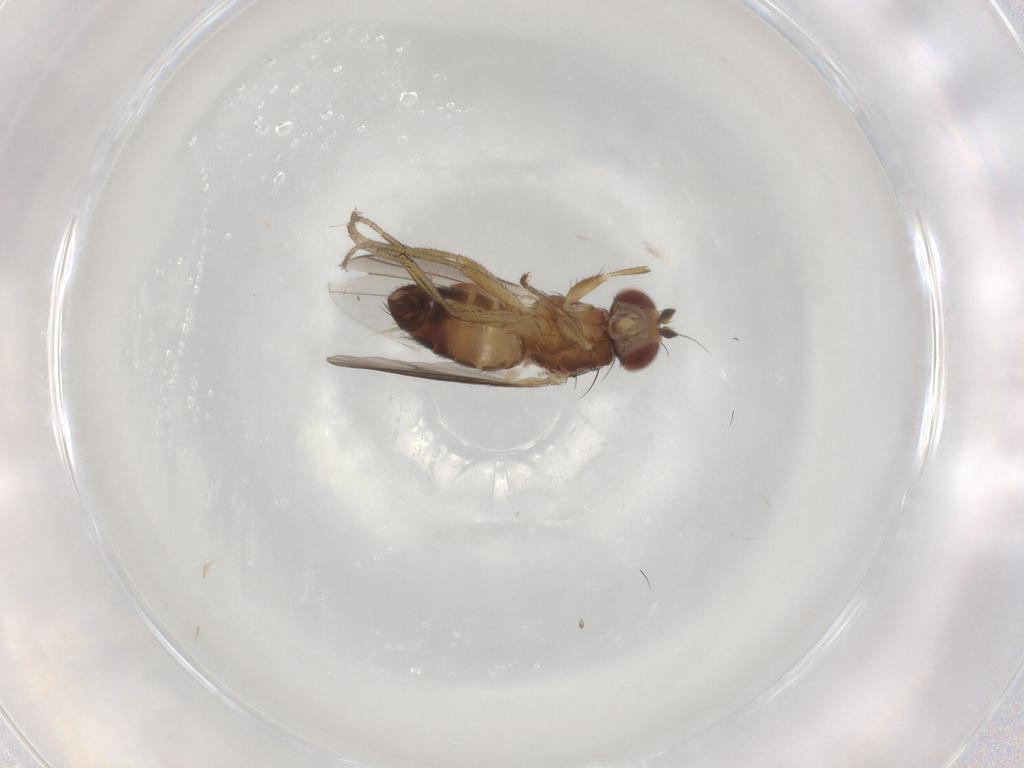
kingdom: Animalia
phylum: Arthropoda
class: Insecta
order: Diptera
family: Heleomyzidae
